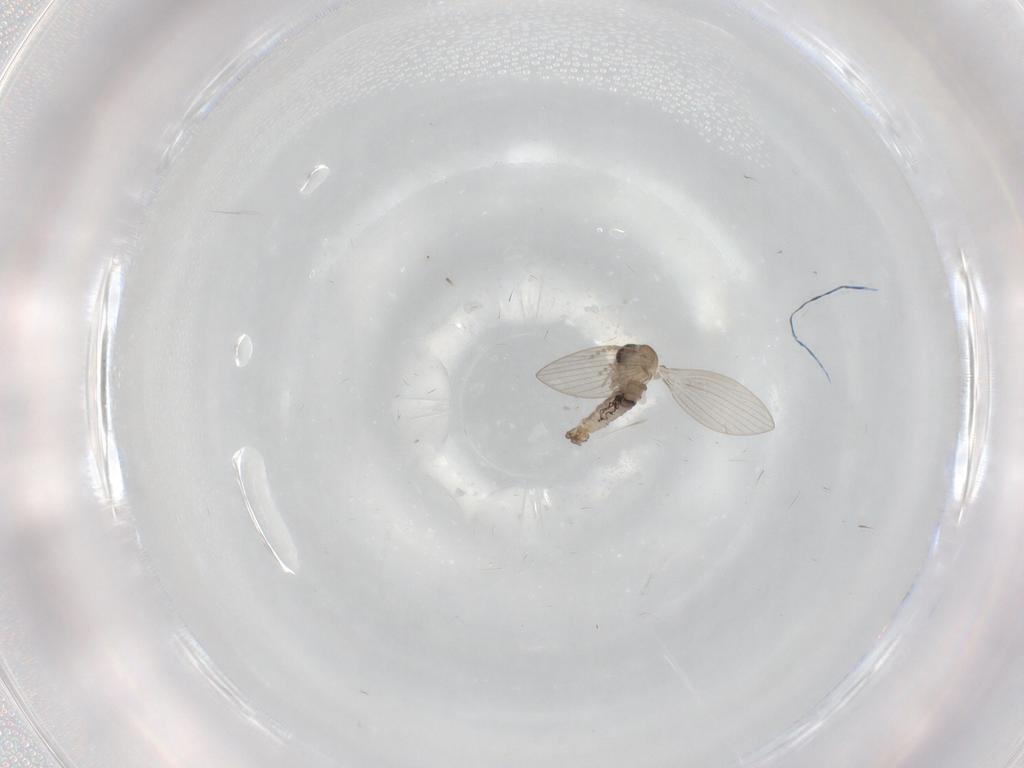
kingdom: Animalia
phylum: Arthropoda
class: Insecta
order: Diptera
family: Psychodidae
